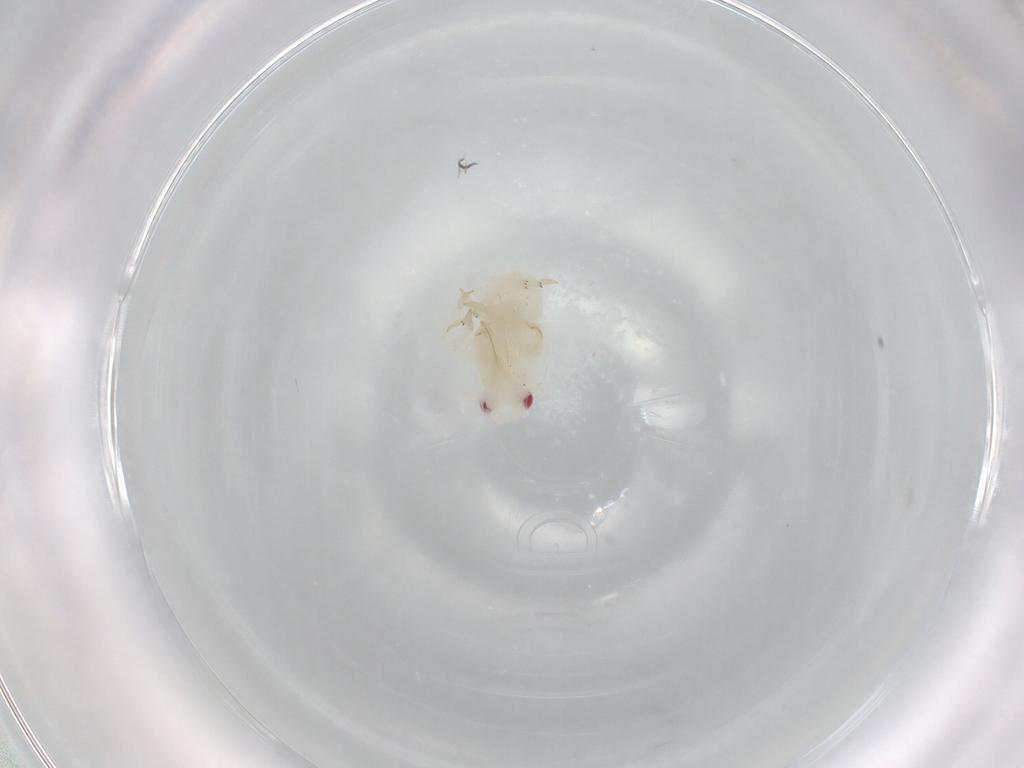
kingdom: Animalia
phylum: Arthropoda
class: Insecta
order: Hemiptera
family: Flatidae
